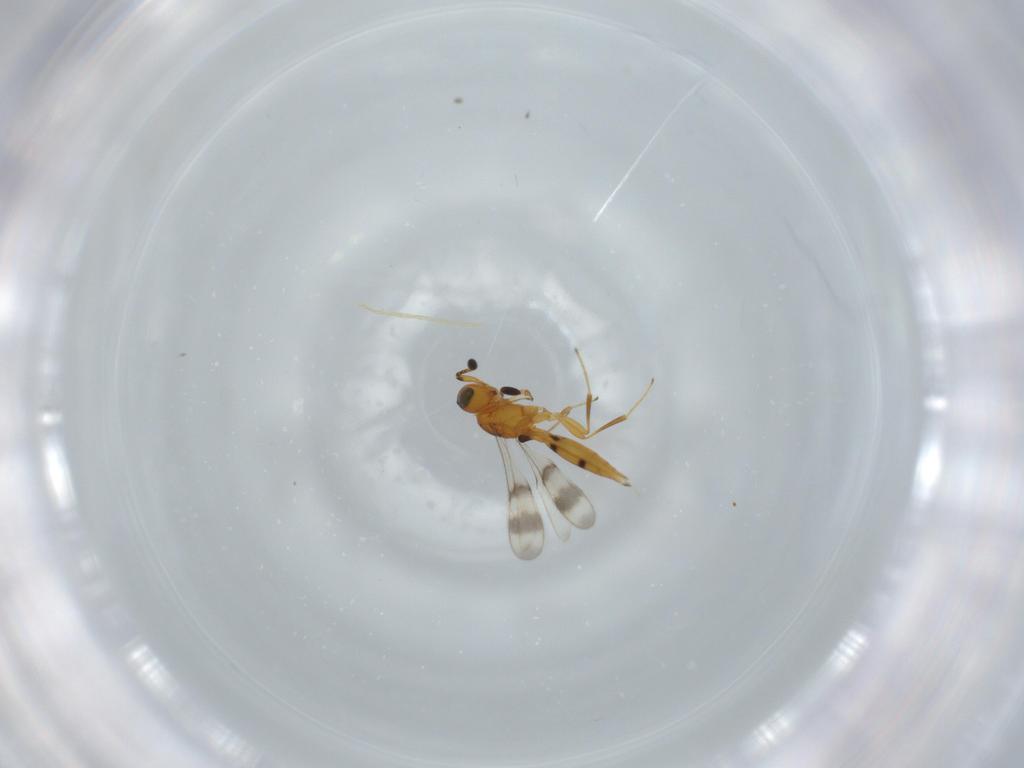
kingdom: Animalia
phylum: Arthropoda
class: Insecta
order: Hymenoptera
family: Scelionidae
